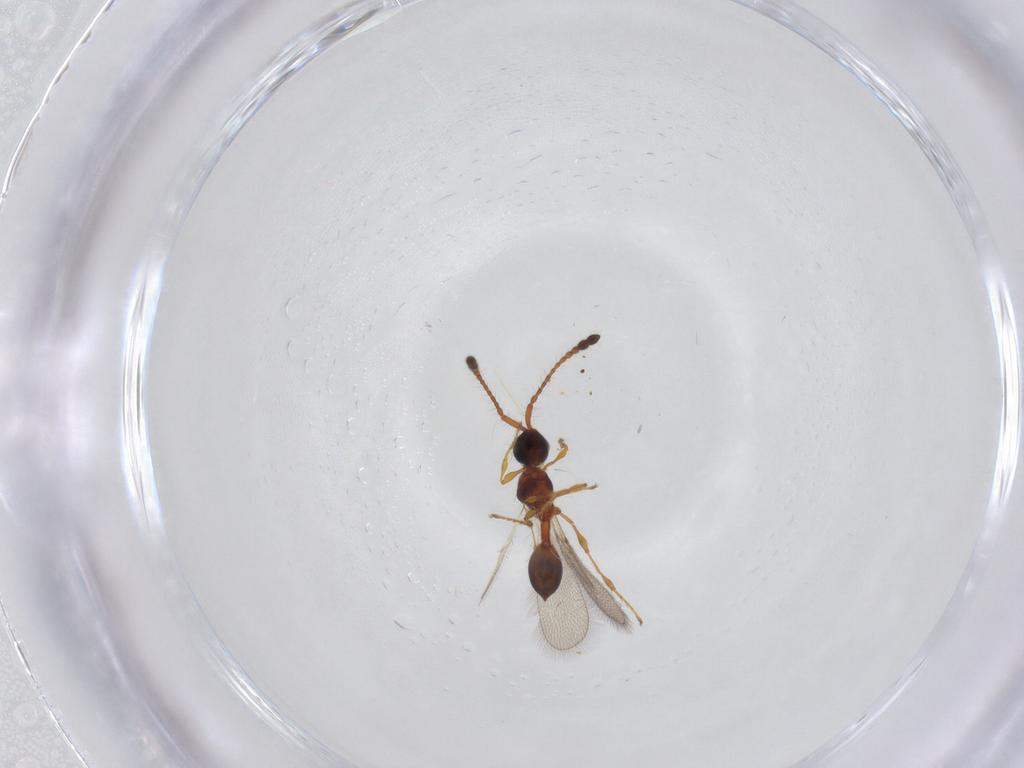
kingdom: Animalia
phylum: Arthropoda
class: Insecta
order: Hymenoptera
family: Diapriidae
